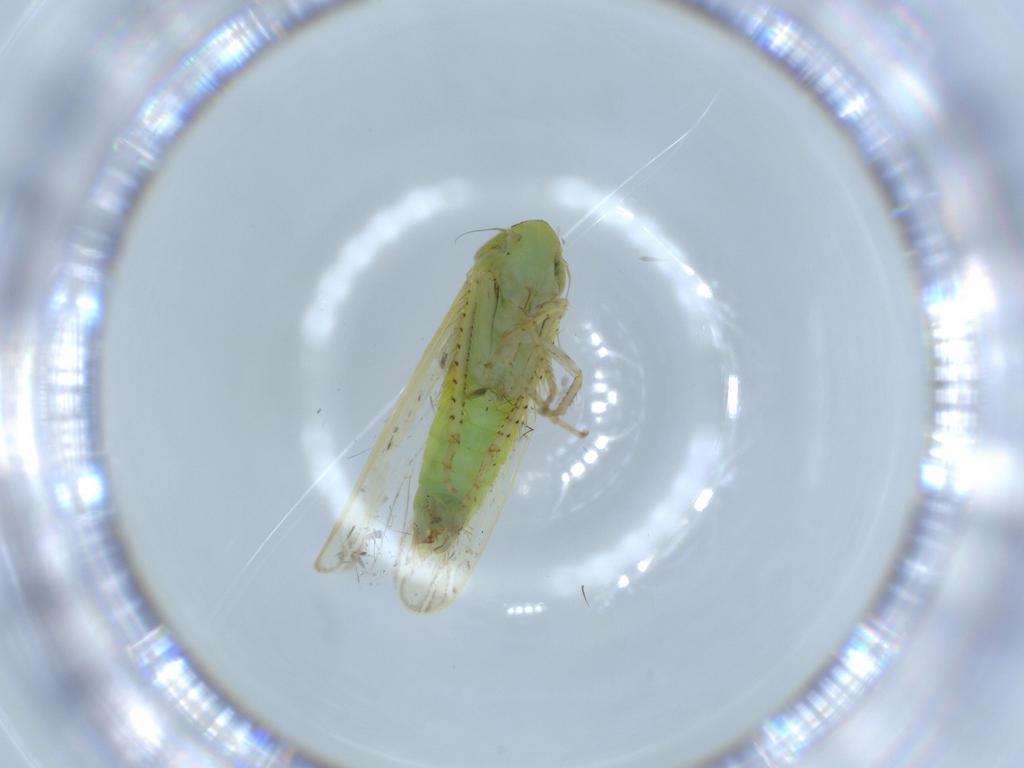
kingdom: Animalia
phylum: Arthropoda
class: Insecta
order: Hemiptera
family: Cicadellidae
